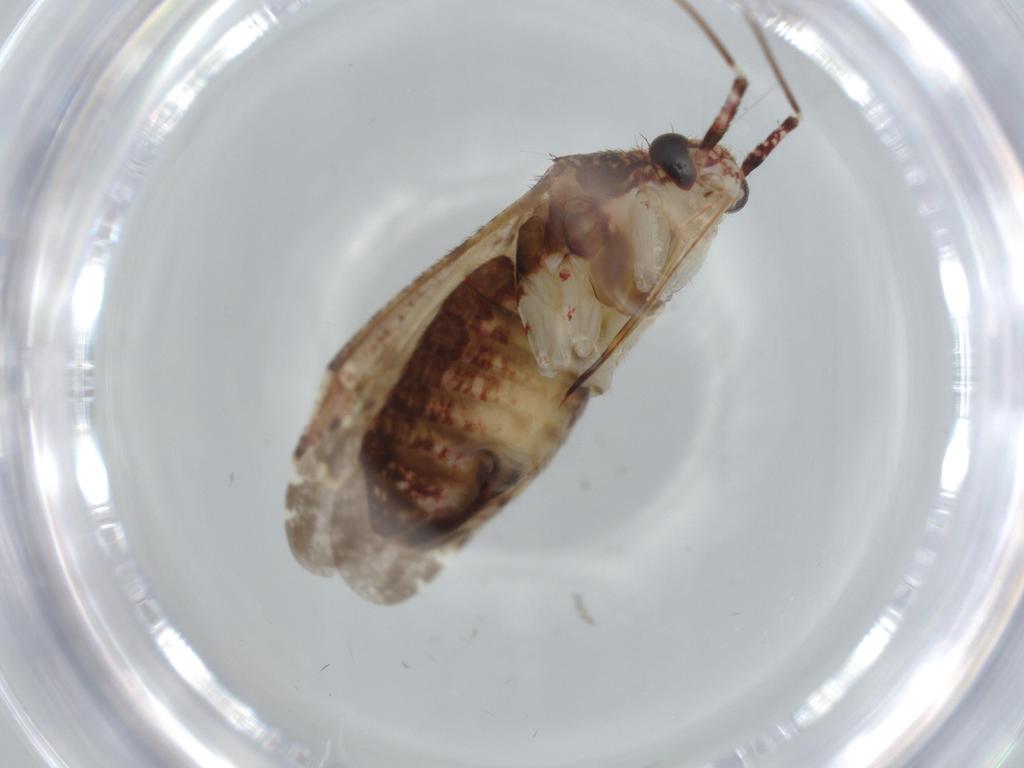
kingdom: Animalia
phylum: Arthropoda
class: Insecta
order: Hemiptera
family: Miridae
